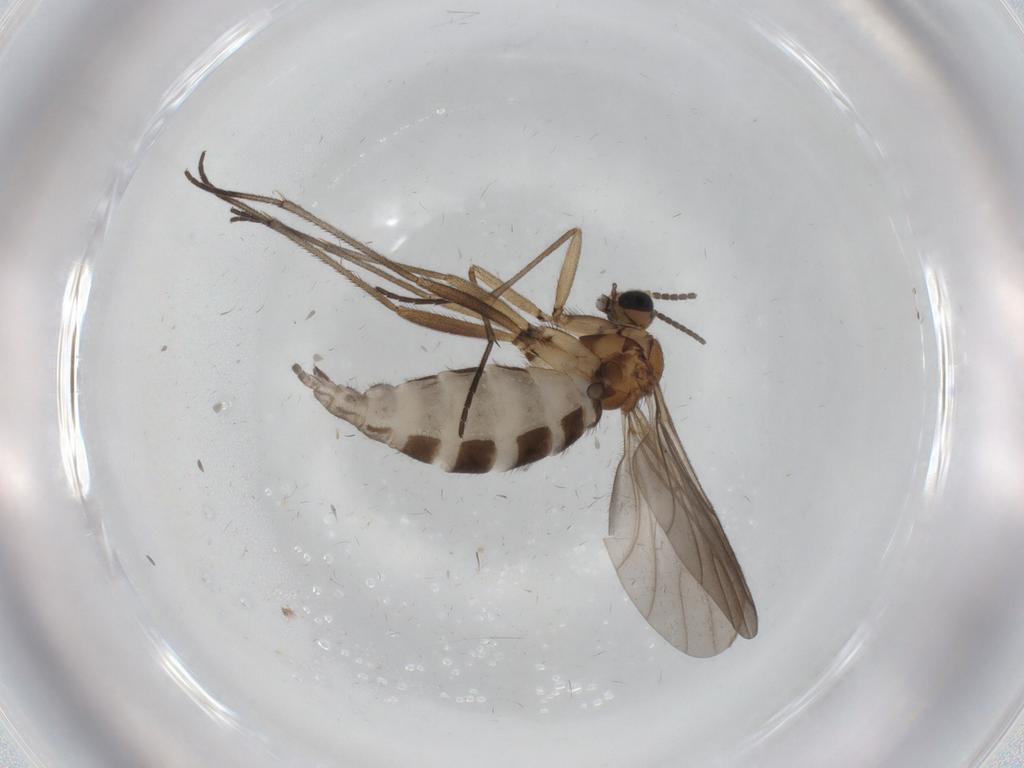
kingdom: Animalia
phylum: Arthropoda
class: Insecta
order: Diptera
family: Sciaridae
